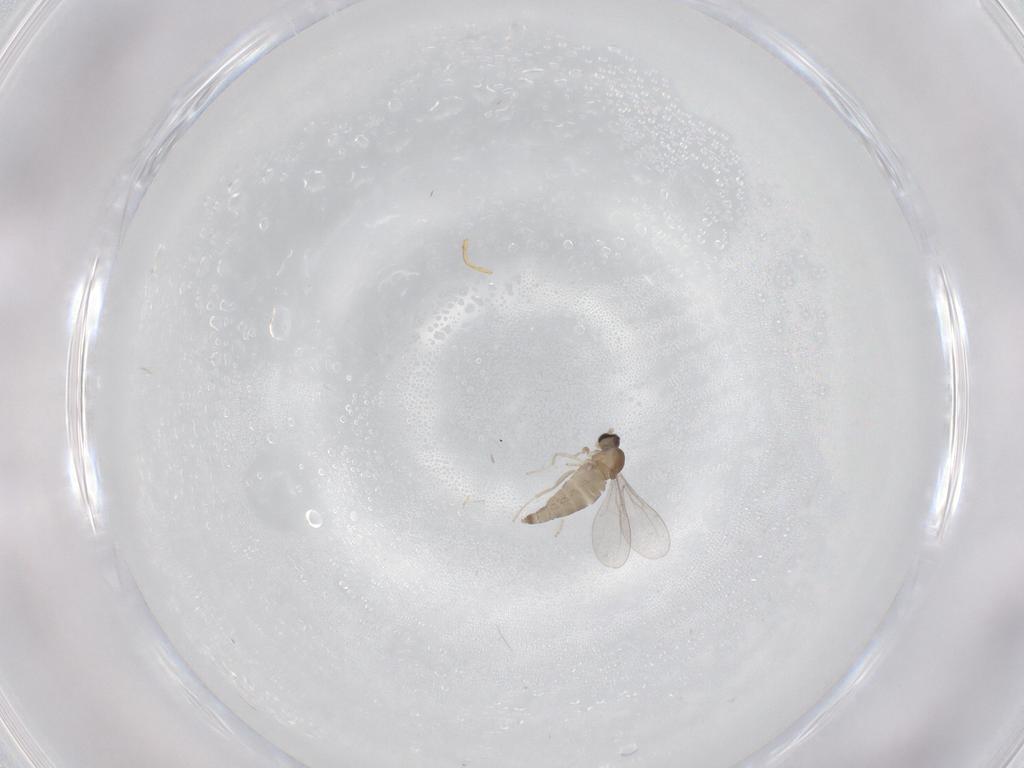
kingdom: Animalia
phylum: Arthropoda
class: Insecta
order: Diptera
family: Cecidomyiidae
